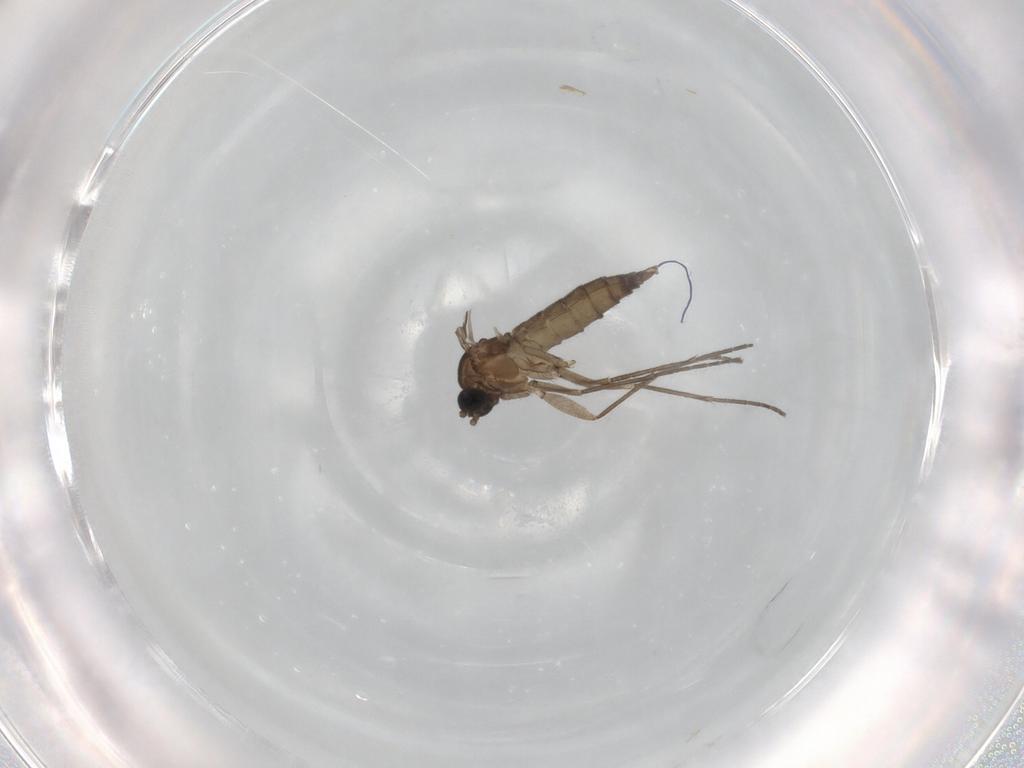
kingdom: Animalia
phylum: Arthropoda
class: Insecta
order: Diptera
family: Sciaridae
